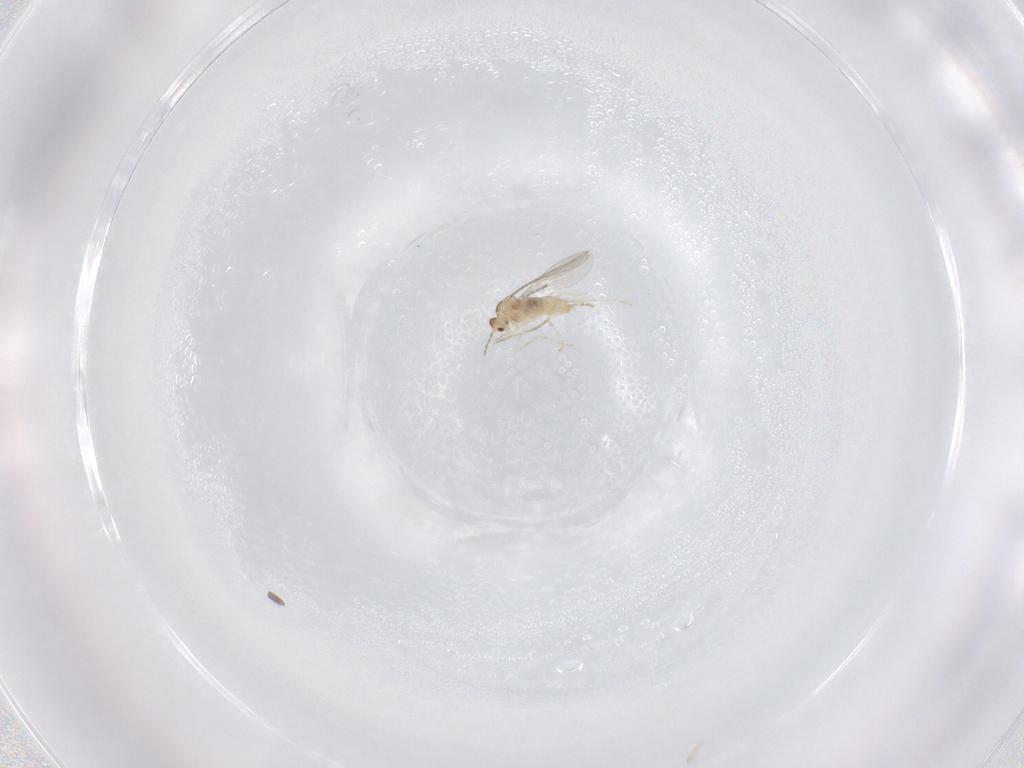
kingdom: Animalia
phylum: Arthropoda
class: Insecta
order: Diptera
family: Cecidomyiidae
